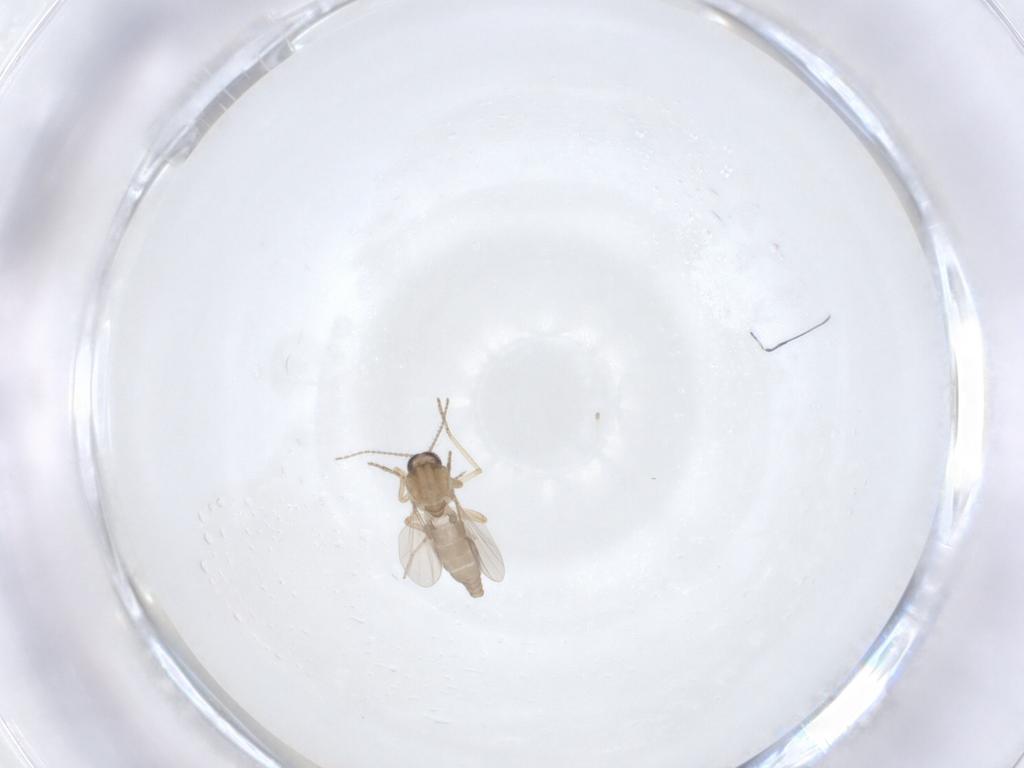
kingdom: Animalia
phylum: Arthropoda
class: Insecta
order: Diptera
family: Ceratopogonidae
